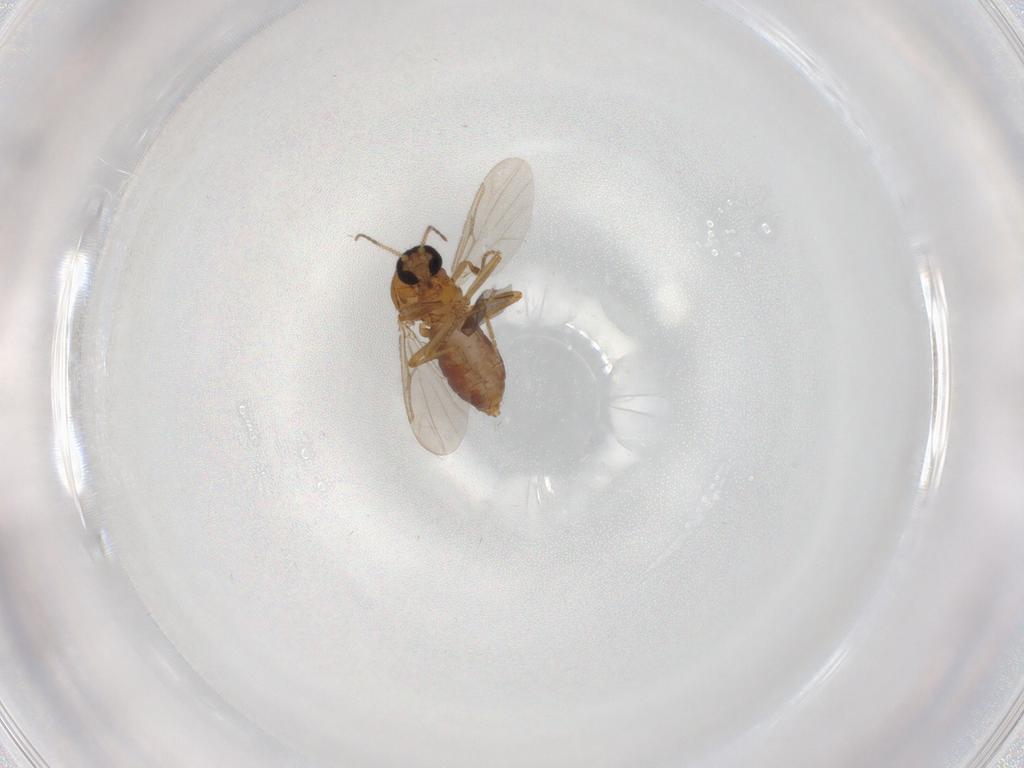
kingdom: Animalia
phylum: Arthropoda
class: Insecta
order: Diptera
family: Ceratopogonidae
